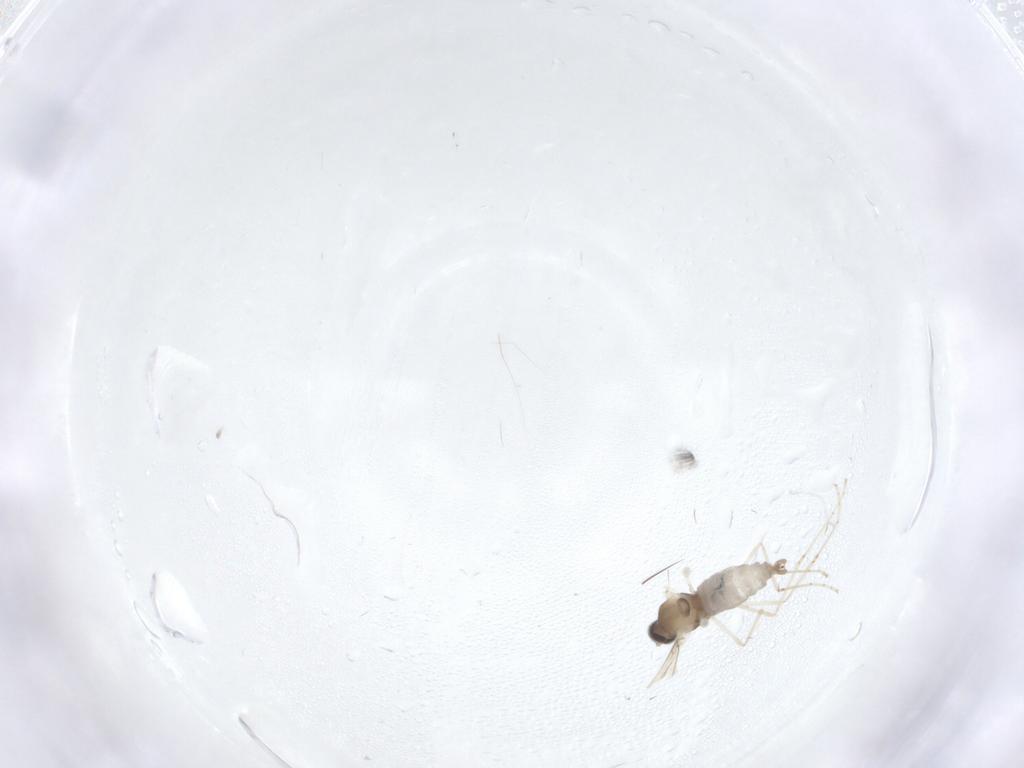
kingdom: Animalia
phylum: Arthropoda
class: Insecta
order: Diptera
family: Cecidomyiidae
